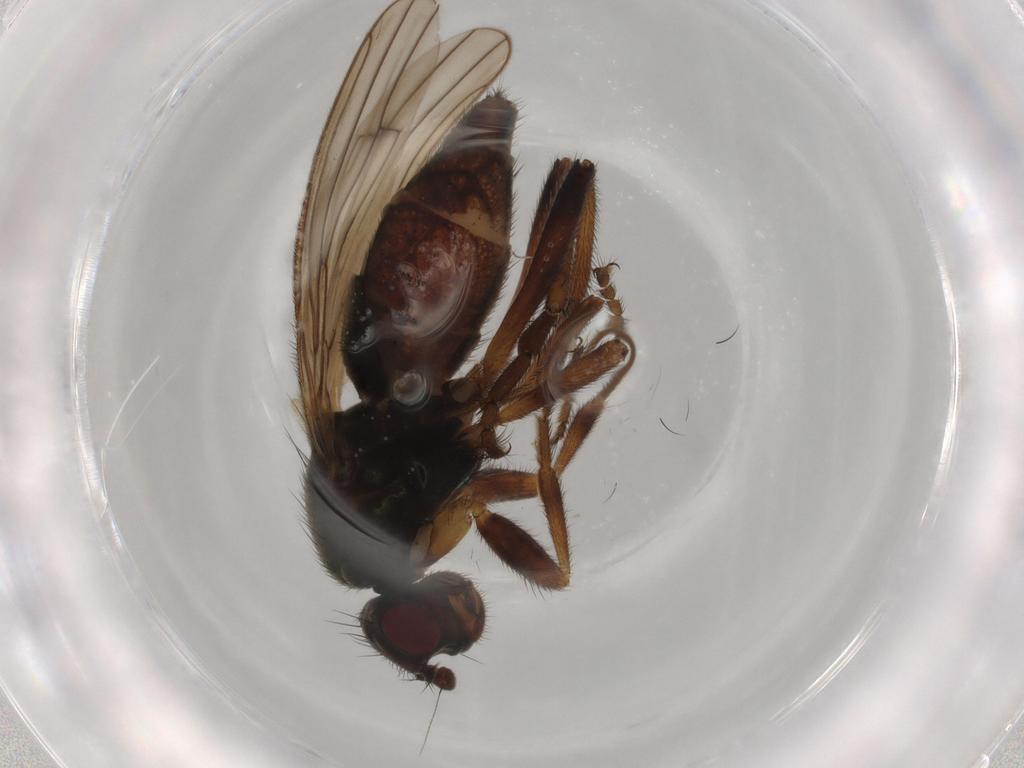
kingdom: Animalia
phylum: Arthropoda
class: Insecta
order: Diptera
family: Sphaeroceridae
